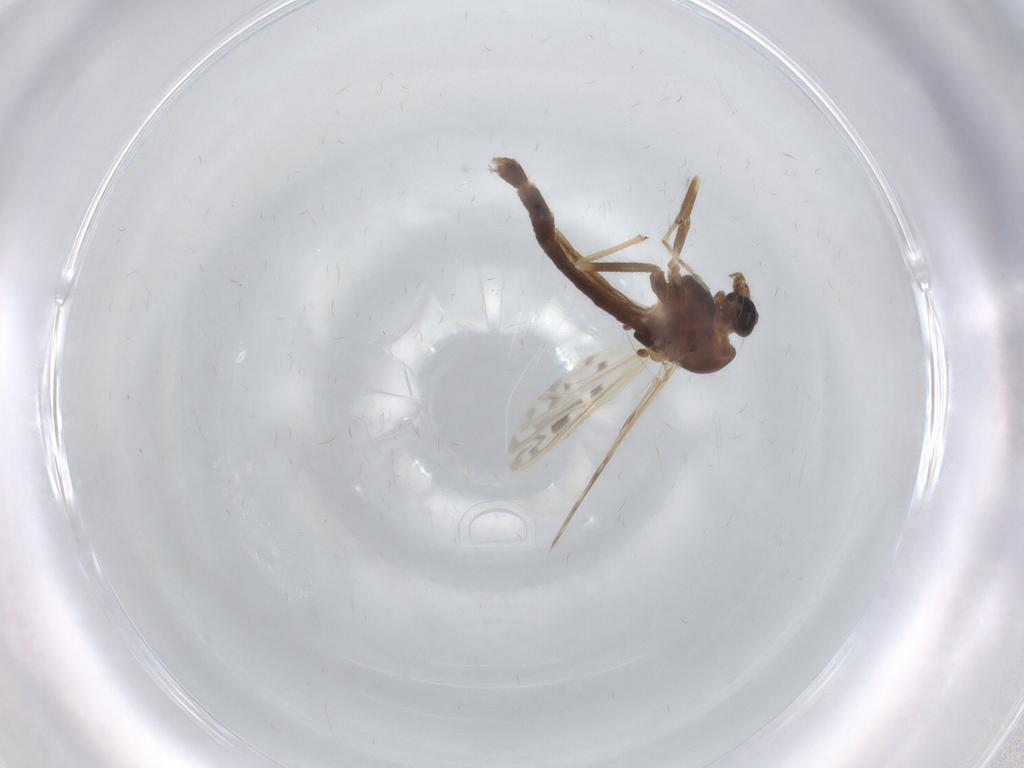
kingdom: Animalia
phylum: Arthropoda
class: Insecta
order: Diptera
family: Chironomidae
